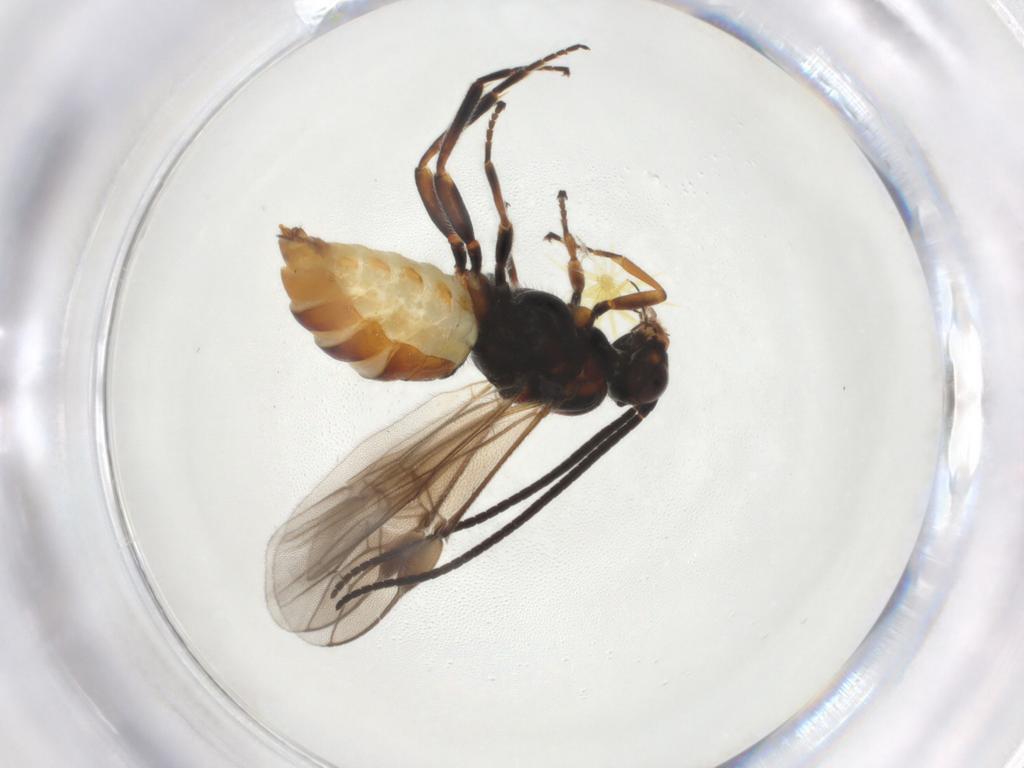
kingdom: Animalia
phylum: Arthropoda
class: Insecta
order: Hymenoptera
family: Braconidae
